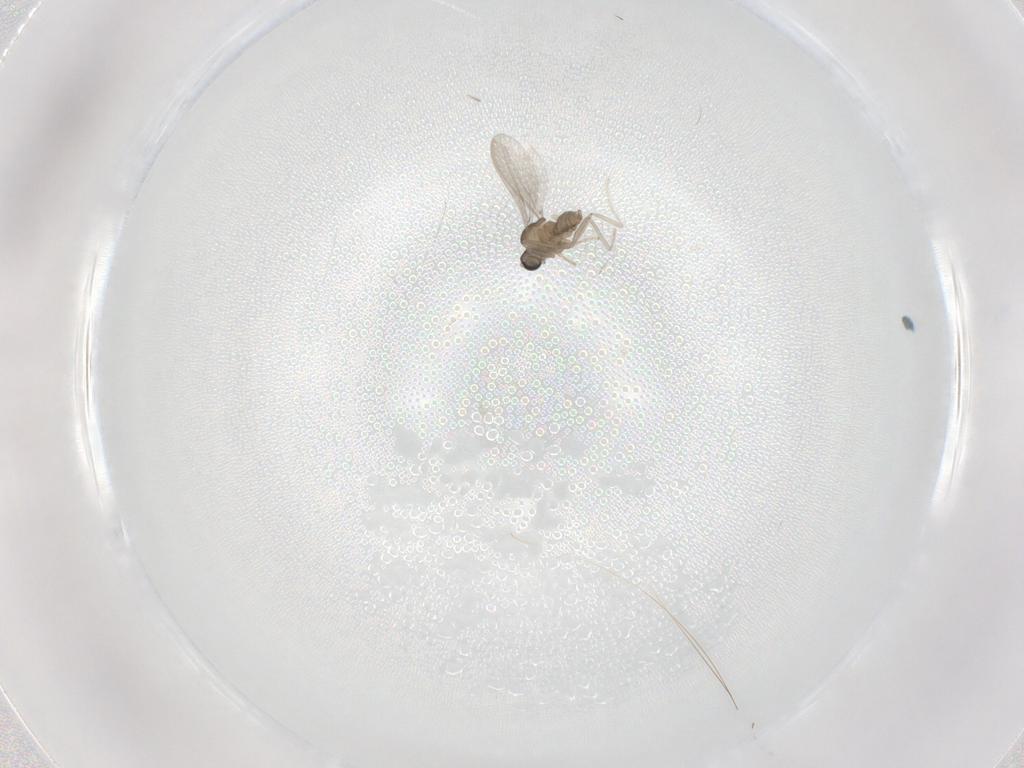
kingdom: Animalia
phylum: Arthropoda
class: Insecta
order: Diptera
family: Cecidomyiidae
